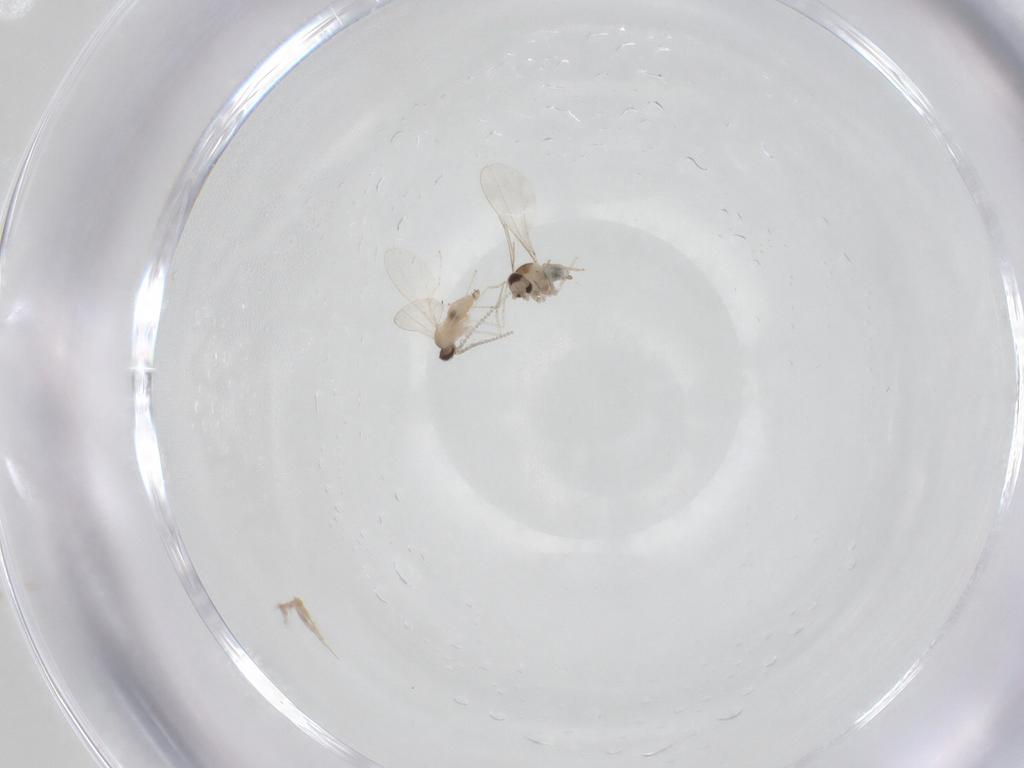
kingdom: Animalia
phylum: Arthropoda
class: Insecta
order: Diptera
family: Cecidomyiidae
